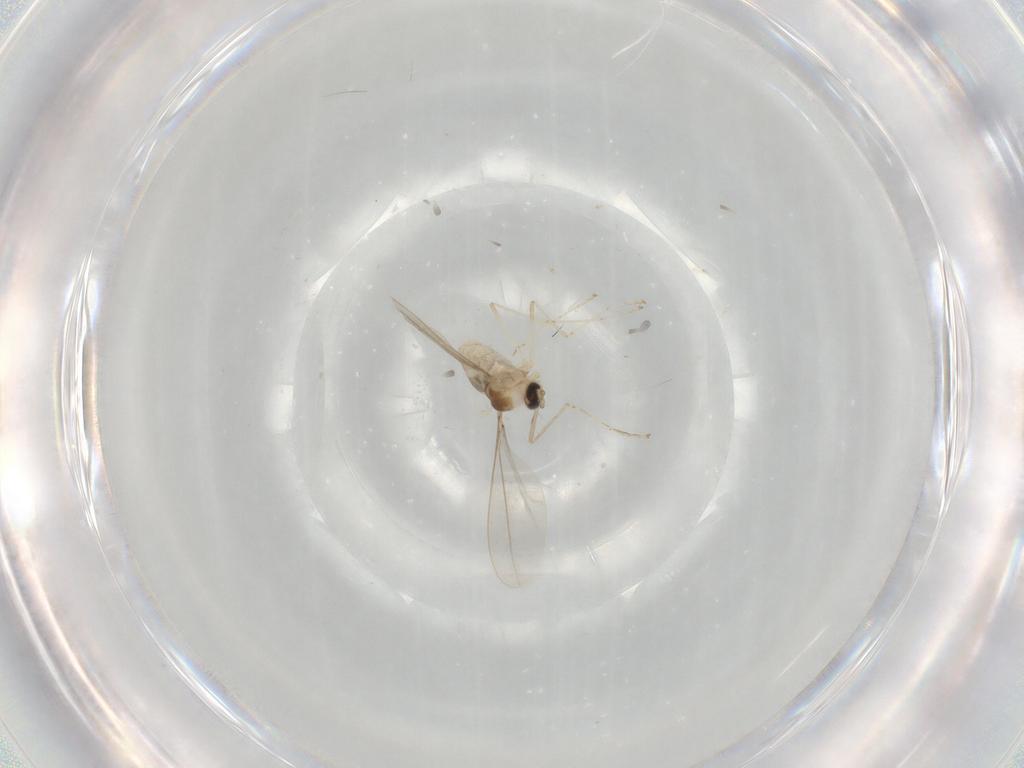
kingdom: Animalia
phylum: Arthropoda
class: Insecta
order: Diptera
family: Cecidomyiidae
